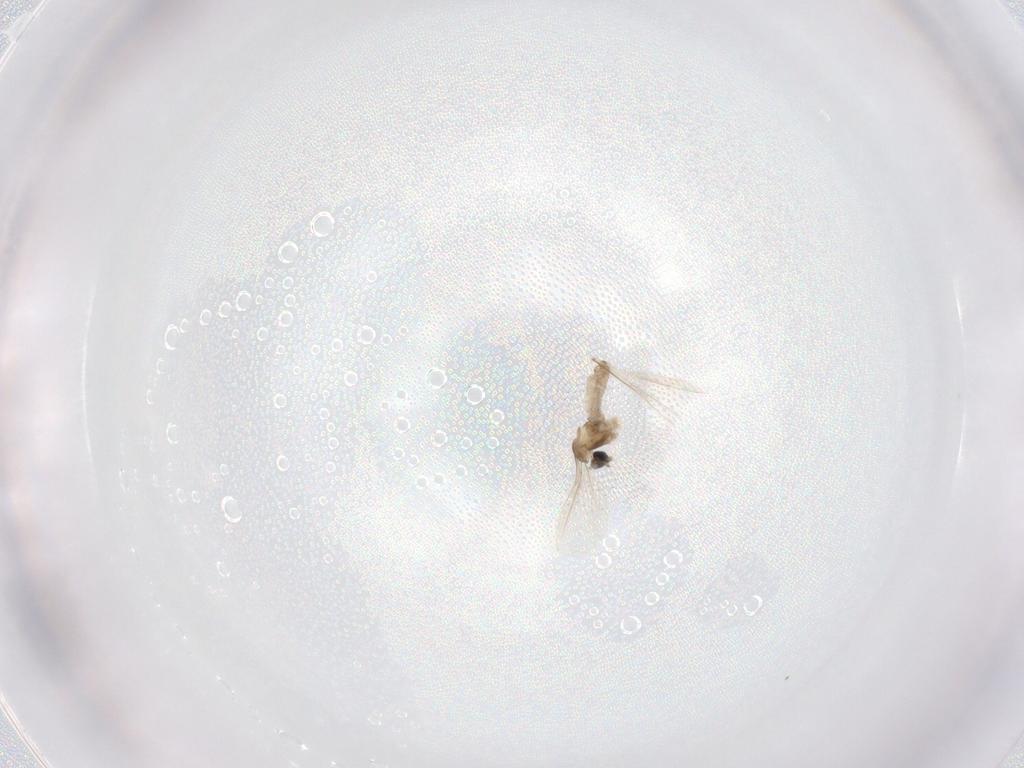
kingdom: Animalia
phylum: Arthropoda
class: Insecta
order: Diptera
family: Cecidomyiidae
